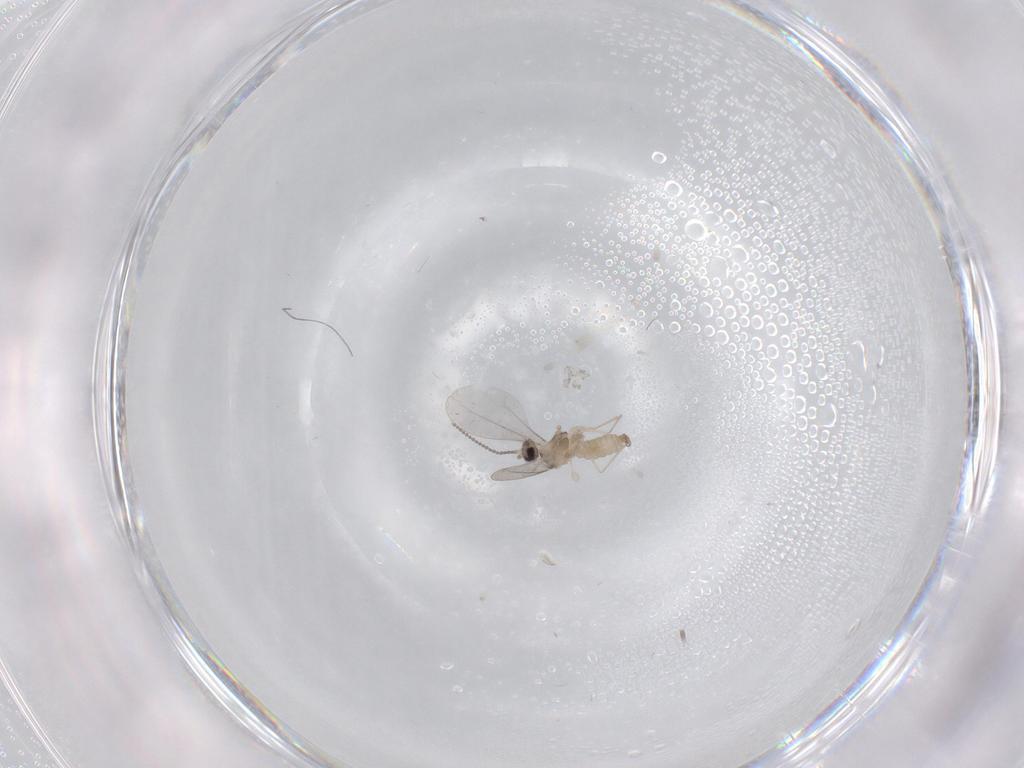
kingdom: Animalia
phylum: Arthropoda
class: Insecta
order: Diptera
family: Cecidomyiidae
